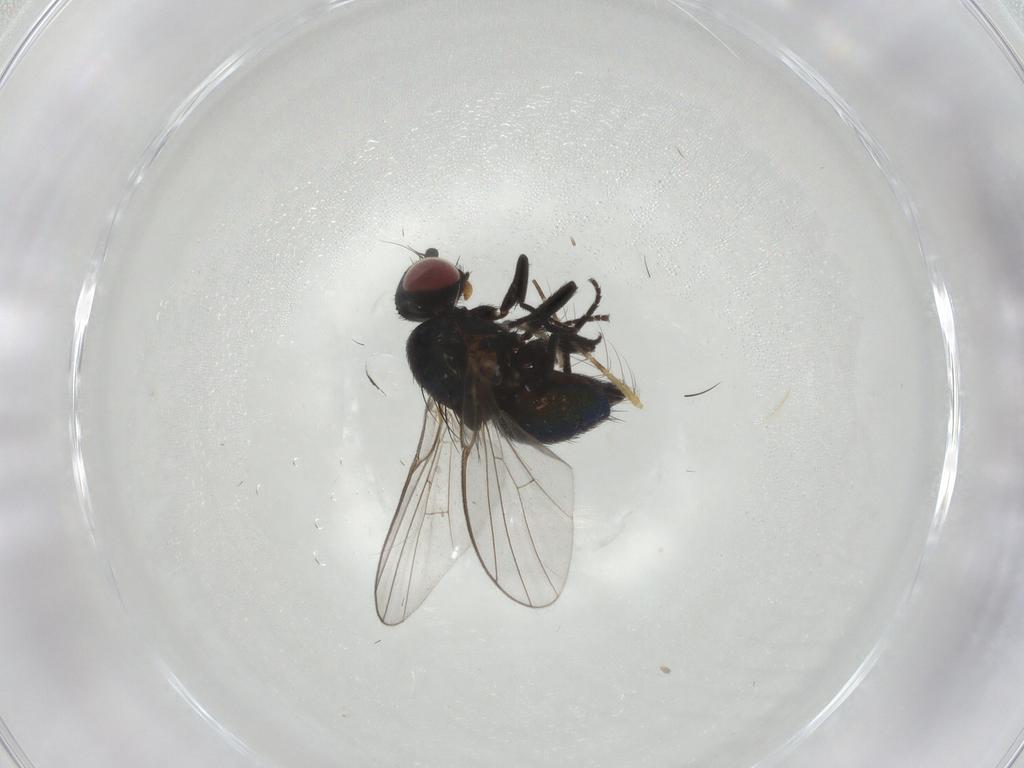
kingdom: Animalia
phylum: Arthropoda
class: Insecta
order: Diptera
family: Agromyzidae
